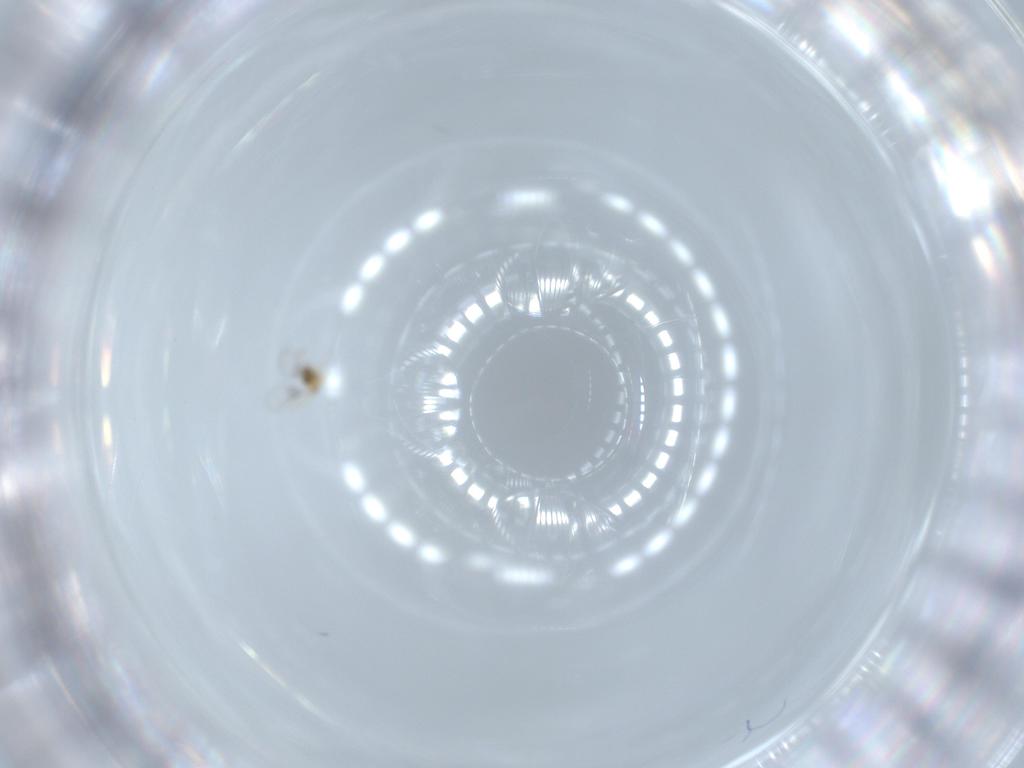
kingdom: Animalia
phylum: Arthropoda
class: Insecta
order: Hymenoptera
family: Trichogrammatidae
